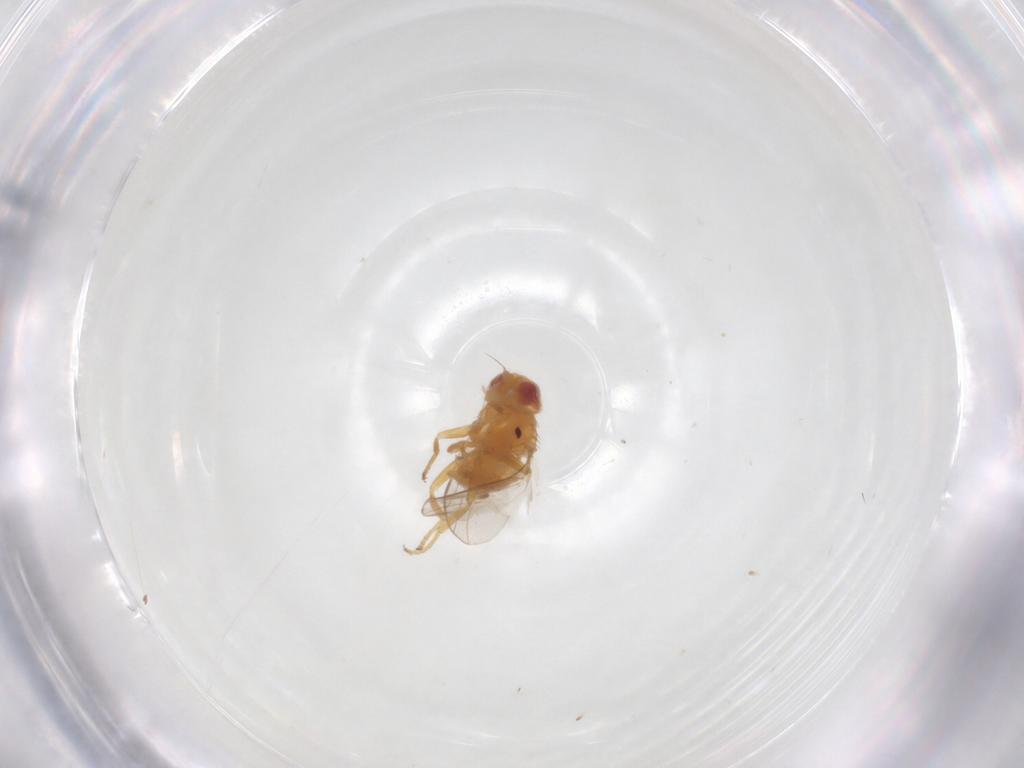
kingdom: Animalia
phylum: Arthropoda
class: Insecta
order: Diptera
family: Chloropidae
